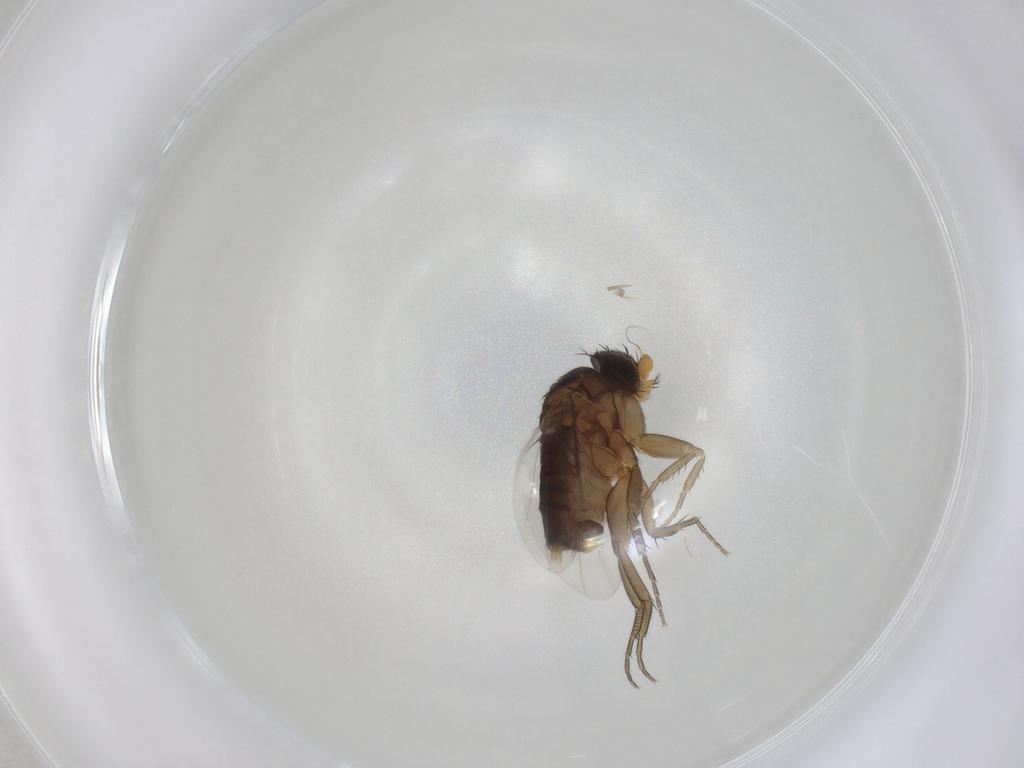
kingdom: Animalia
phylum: Arthropoda
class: Insecta
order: Diptera
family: Phoridae
